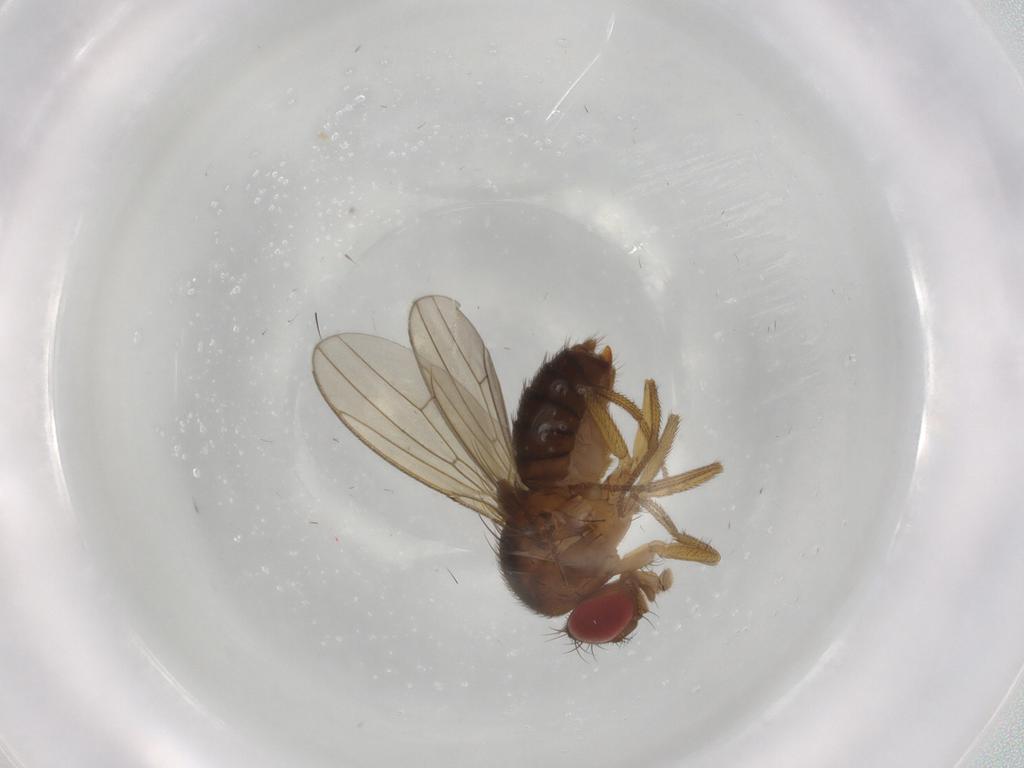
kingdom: Animalia
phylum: Arthropoda
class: Insecta
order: Diptera
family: Drosophilidae
